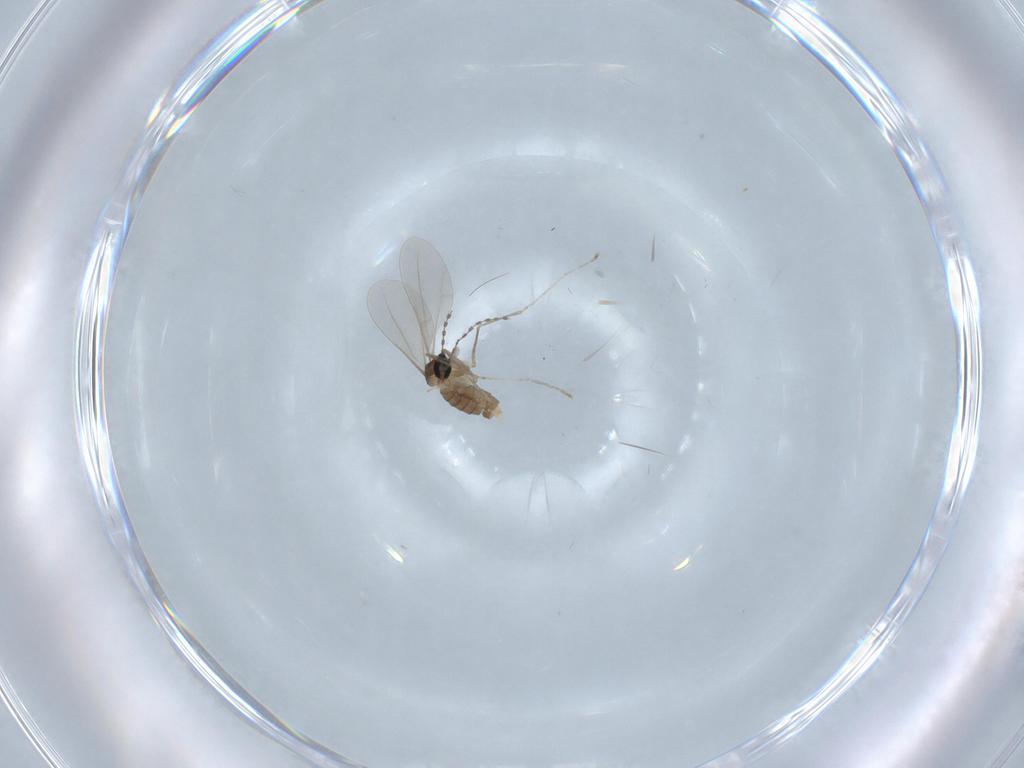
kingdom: Animalia
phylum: Arthropoda
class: Insecta
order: Diptera
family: Cecidomyiidae
